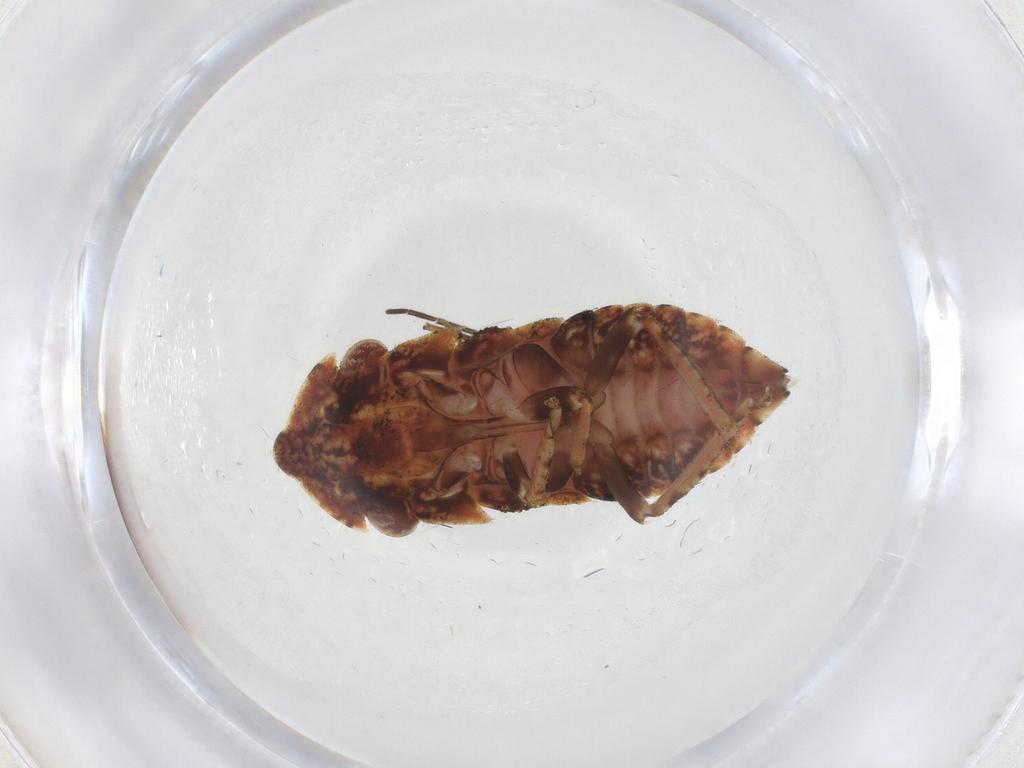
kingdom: Animalia
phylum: Arthropoda
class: Insecta
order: Hemiptera
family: Cicadellidae
